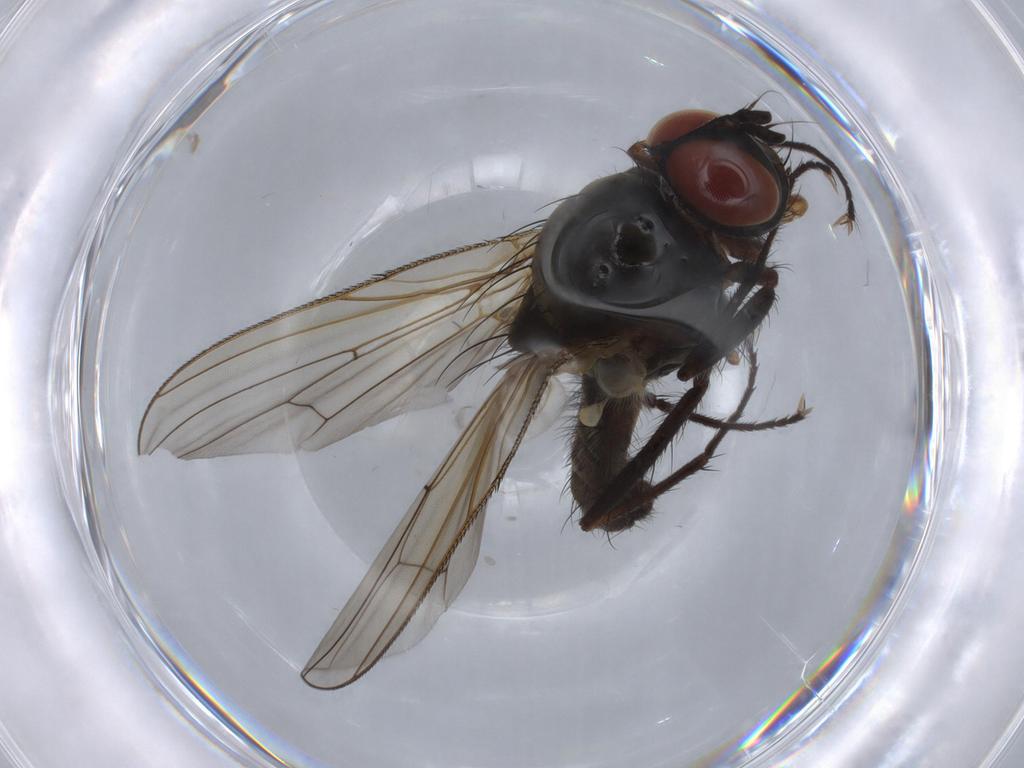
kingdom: Animalia
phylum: Arthropoda
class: Insecta
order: Diptera
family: Anthomyiidae
